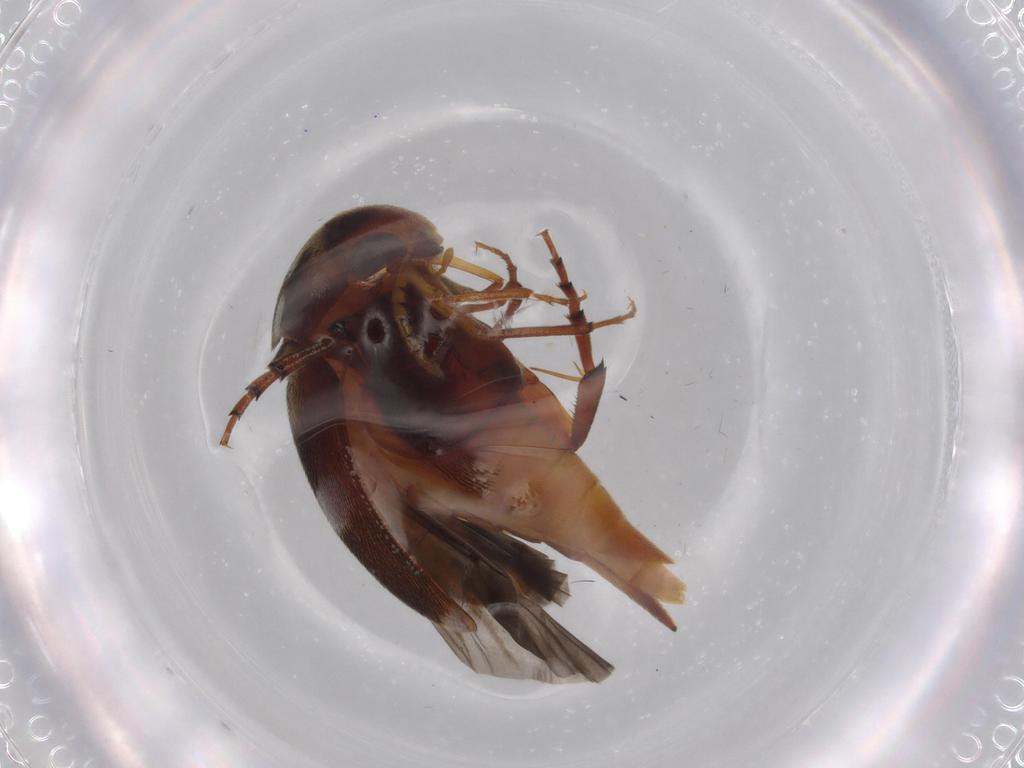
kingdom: Animalia
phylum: Arthropoda
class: Insecta
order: Coleoptera
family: Mordellidae
